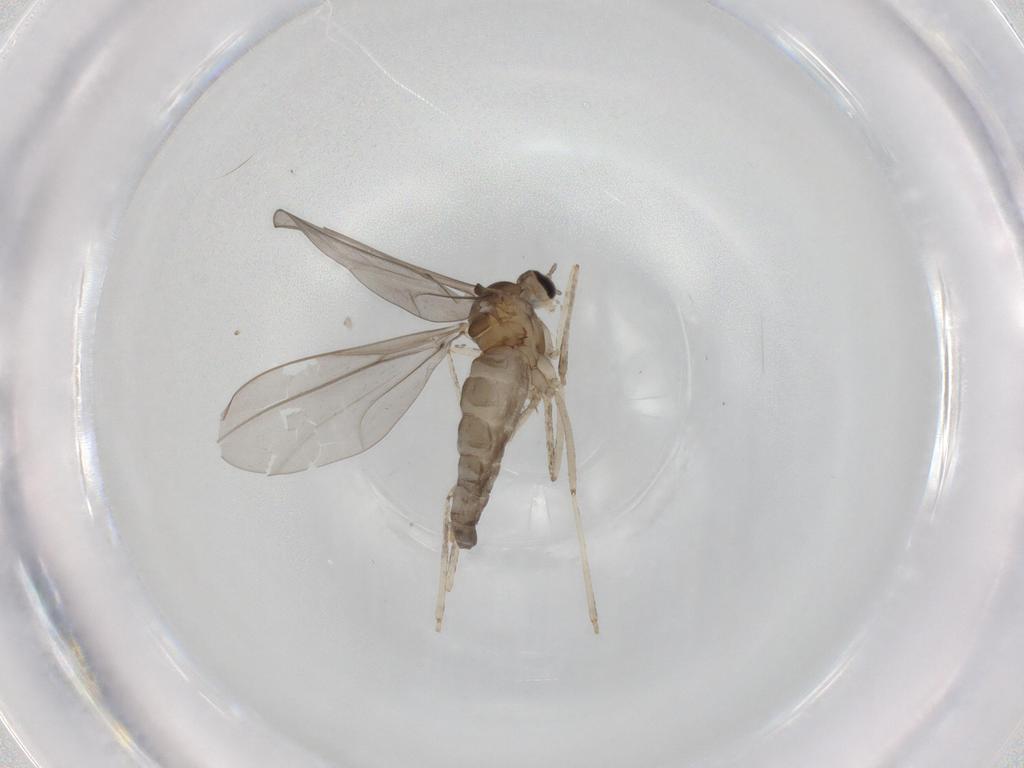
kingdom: Animalia
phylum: Arthropoda
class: Insecta
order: Diptera
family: Cecidomyiidae
